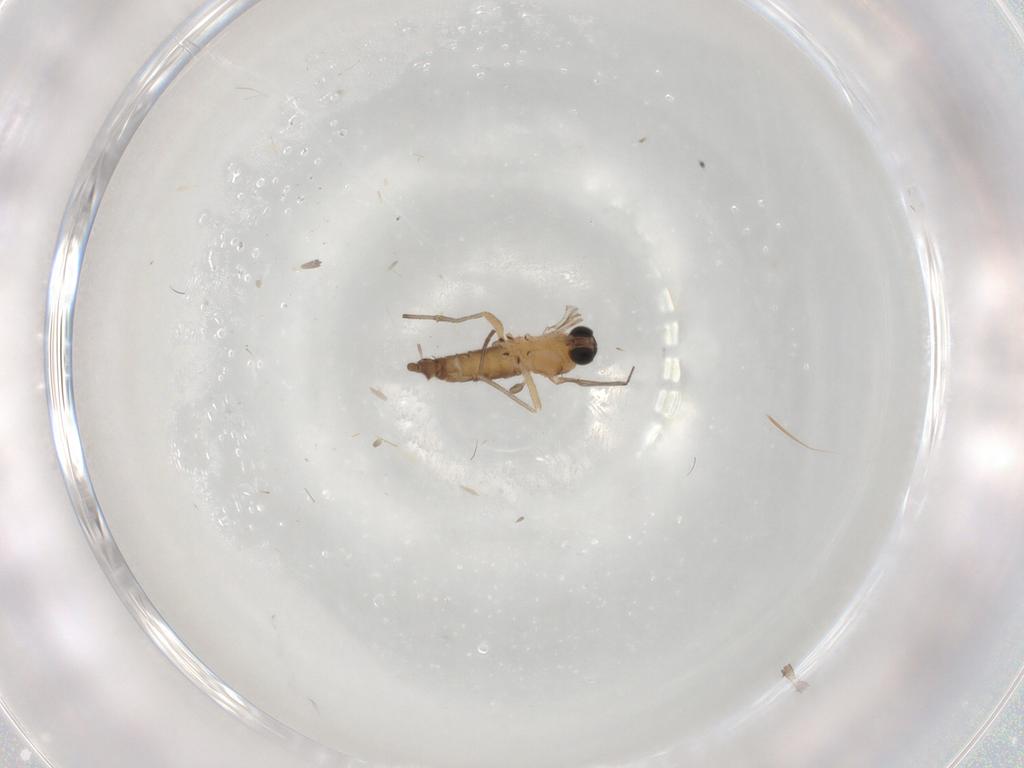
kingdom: Animalia
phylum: Arthropoda
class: Insecta
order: Diptera
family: Sciaridae
